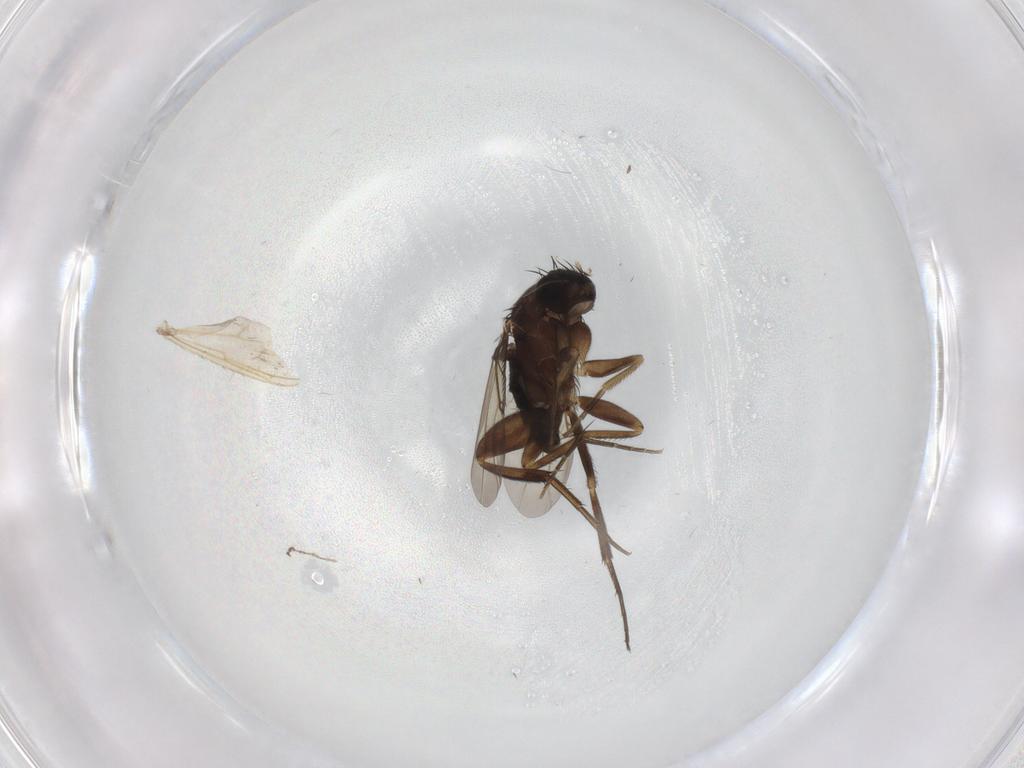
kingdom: Animalia
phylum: Arthropoda
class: Insecta
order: Diptera
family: Phoridae
